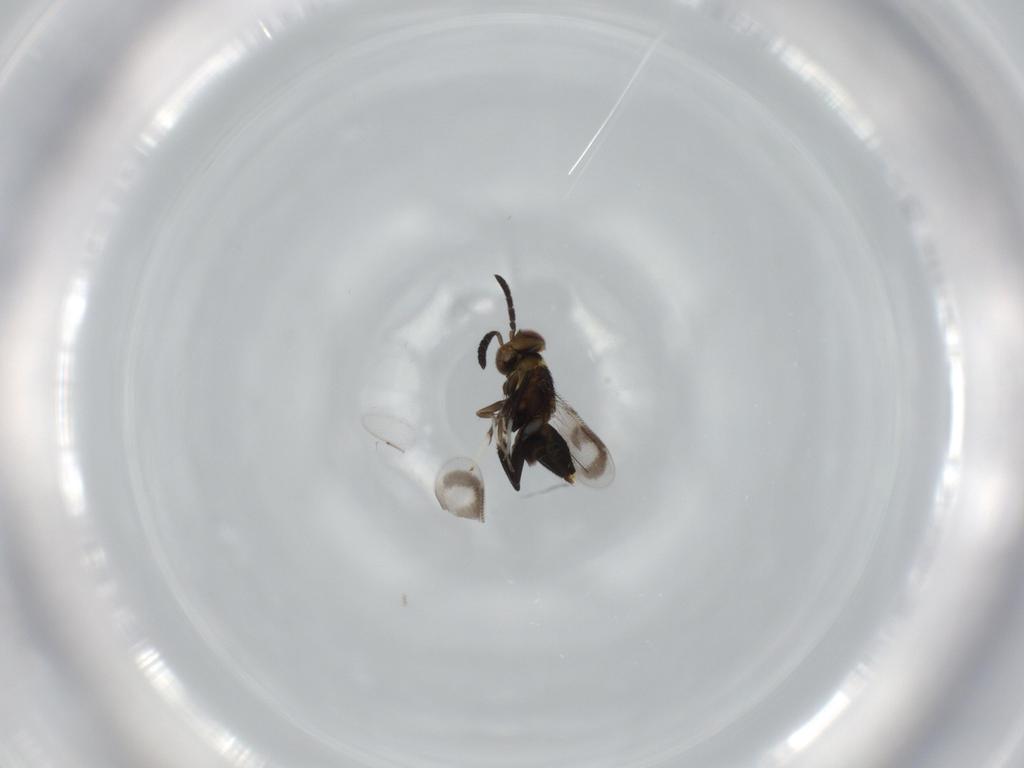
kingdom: Animalia
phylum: Arthropoda
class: Insecta
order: Hymenoptera
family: Aphelinidae
